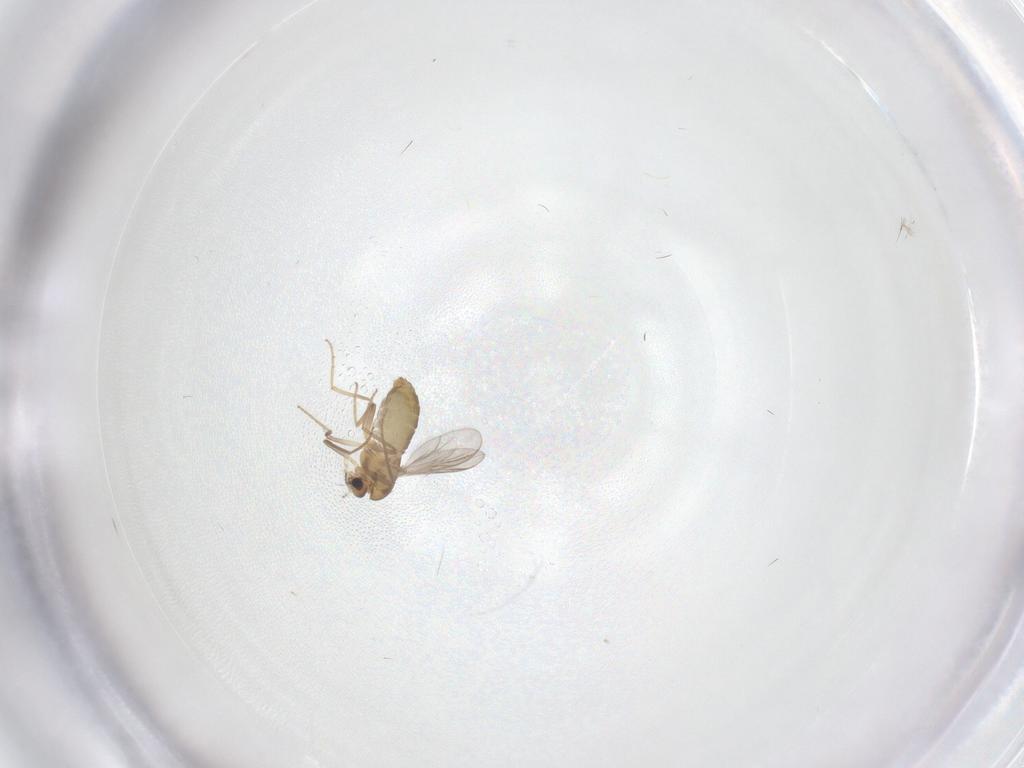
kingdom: Animalia
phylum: Arthropoda
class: Insecta
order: Diptera
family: Chironomidae
